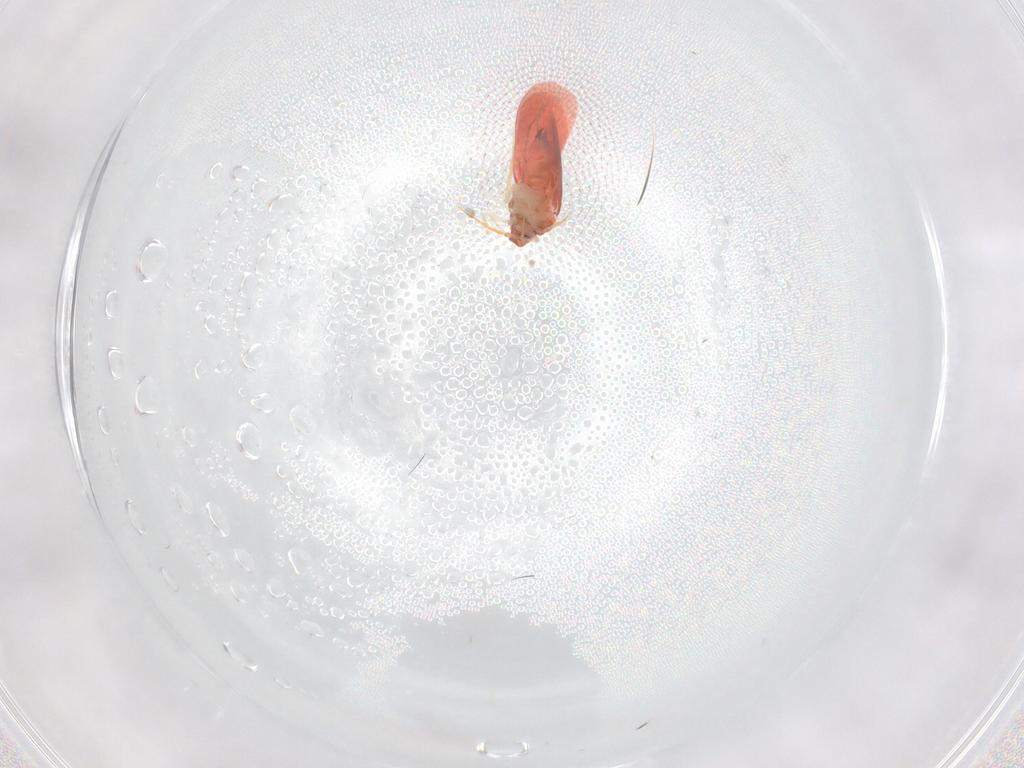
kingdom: Animalia
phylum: Arthropoda
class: Insecta
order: Hemiptera
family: Aleyrodidae
